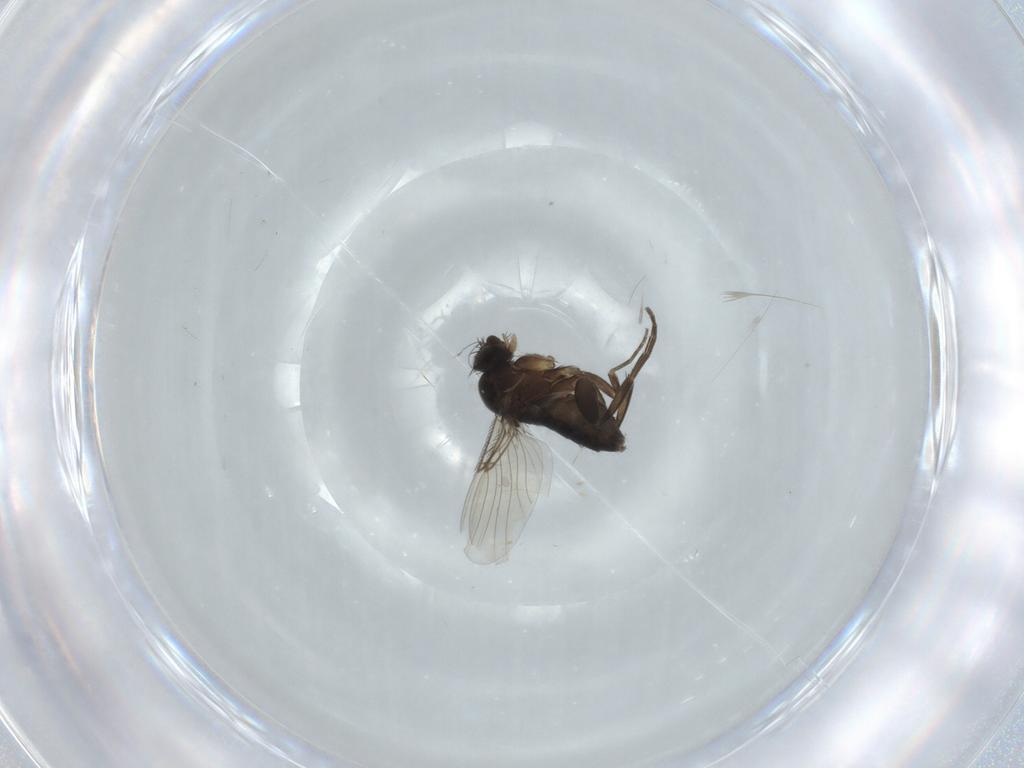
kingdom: Animalia
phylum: Arthropoda
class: Insecta
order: Diptera
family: Phoridae
